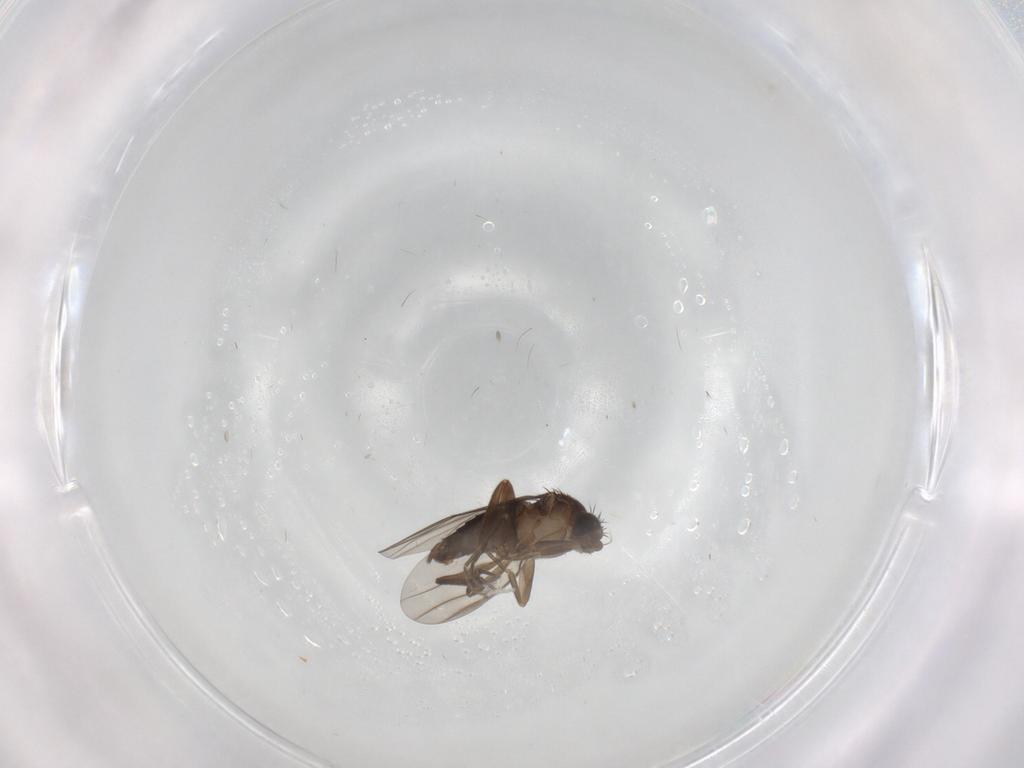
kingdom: Animalia
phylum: Arthropoda
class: Insecta
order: Diptera
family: Phoridae
